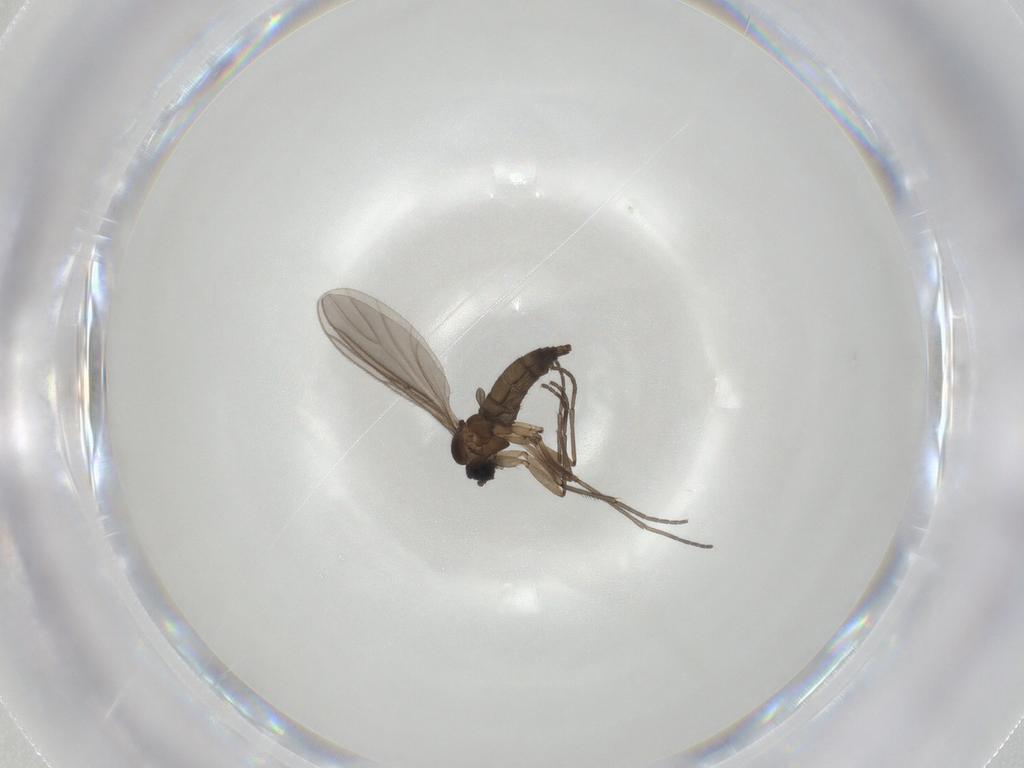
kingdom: Animalia
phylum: Arthropoda
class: Insecta
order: Diptera
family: Sciaridae
